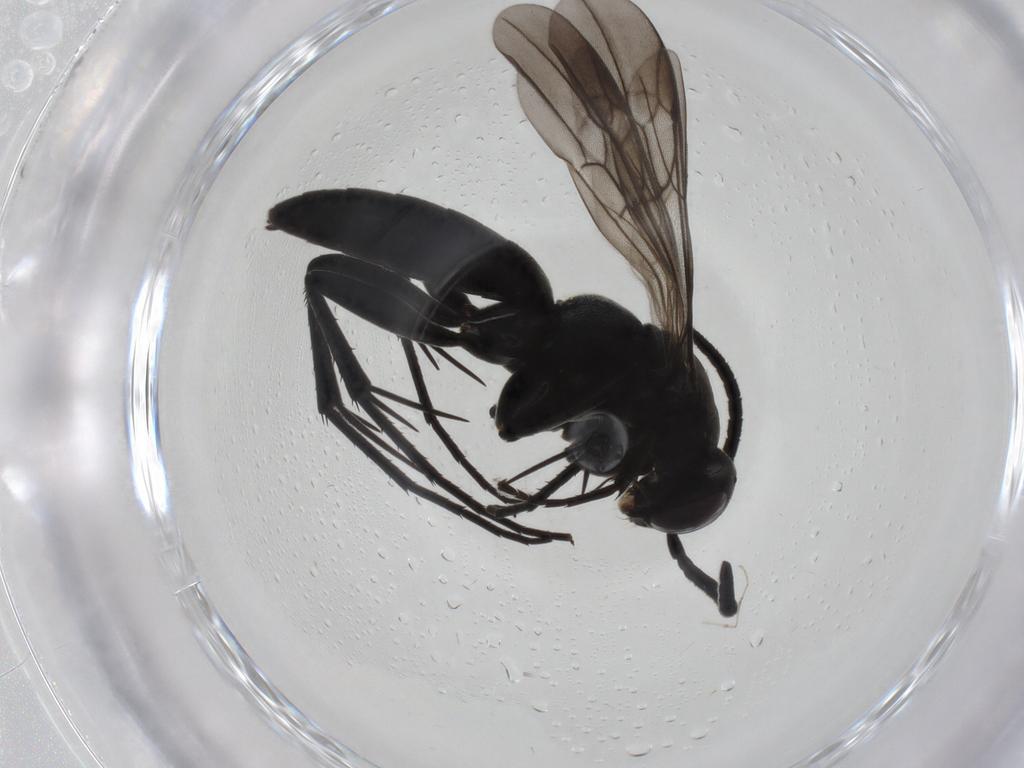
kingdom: Animalia
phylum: Arthropoda
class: Insecta
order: Hymenoptera
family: Pompilidae
